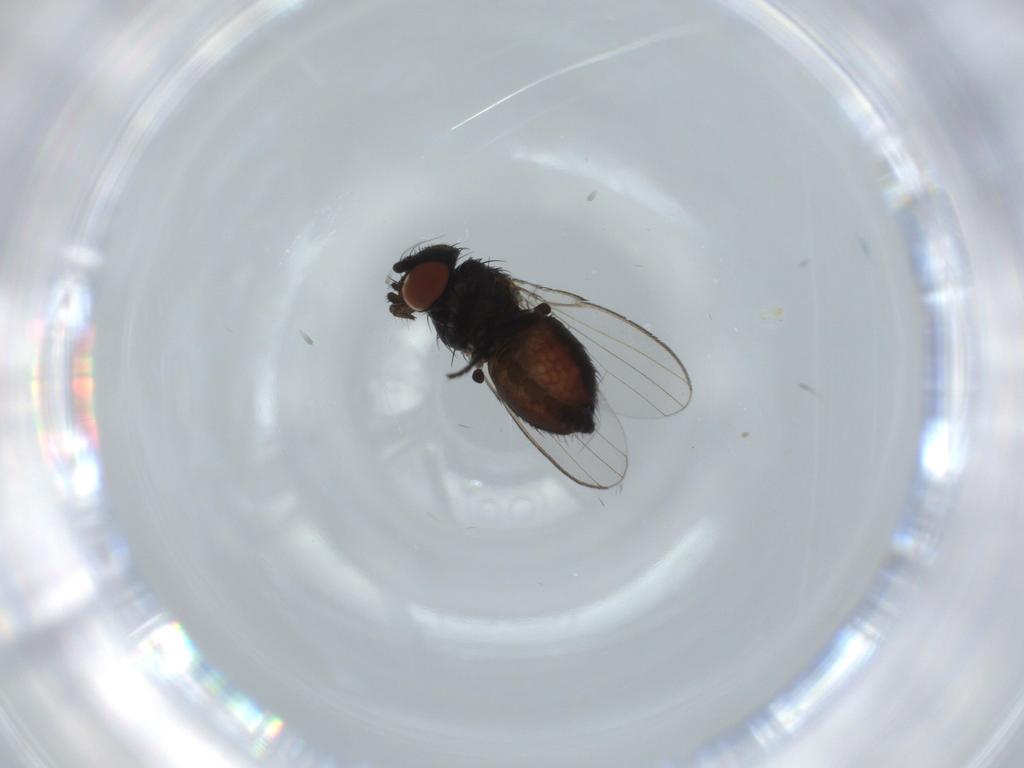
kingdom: Animalia
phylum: Arthropoda
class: Insecta
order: Diptera
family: Milichiidae
